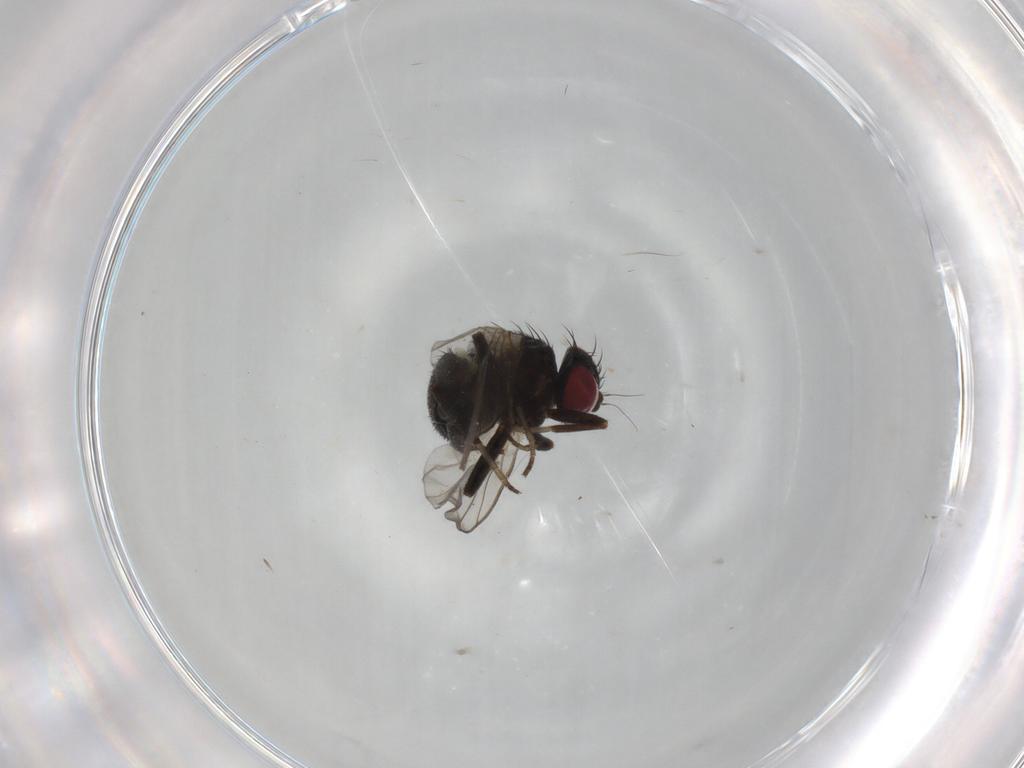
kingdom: Animalia
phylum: Arthropoda
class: Insecta
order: Diptera
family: Agromyzidae
